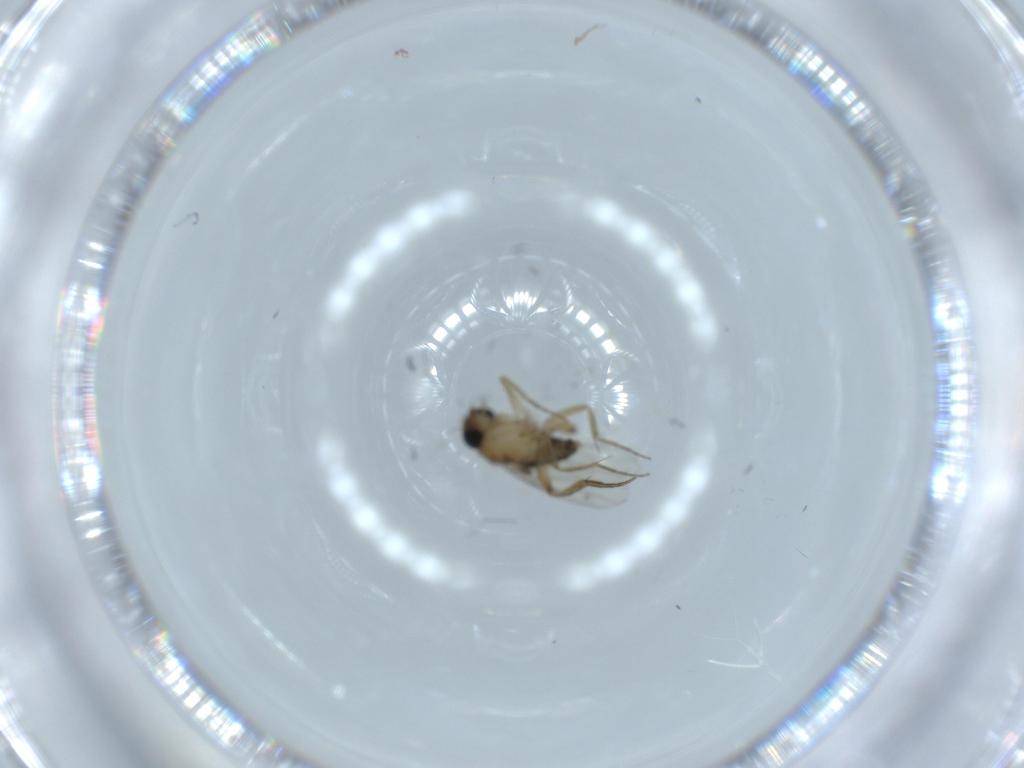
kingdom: Animalia
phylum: Arthropoda
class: Insecta
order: Diptera
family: Phoridae
